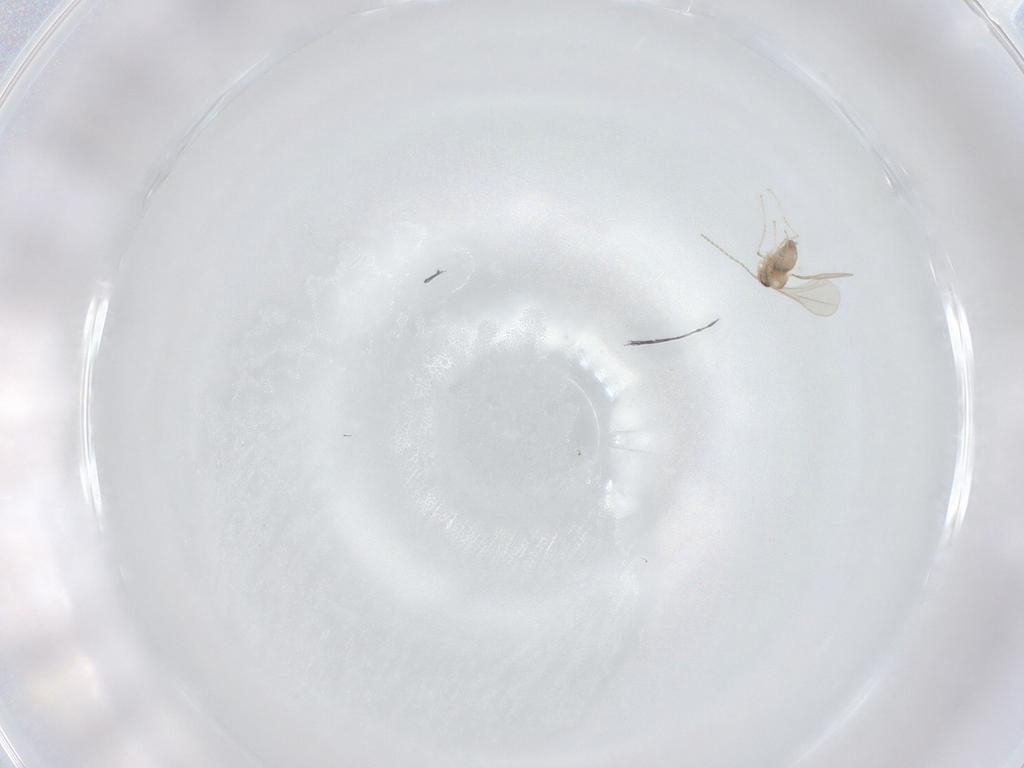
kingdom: Animalia
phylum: Arthropoda
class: Insecta
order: Diptera
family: Cecidomyiidae
